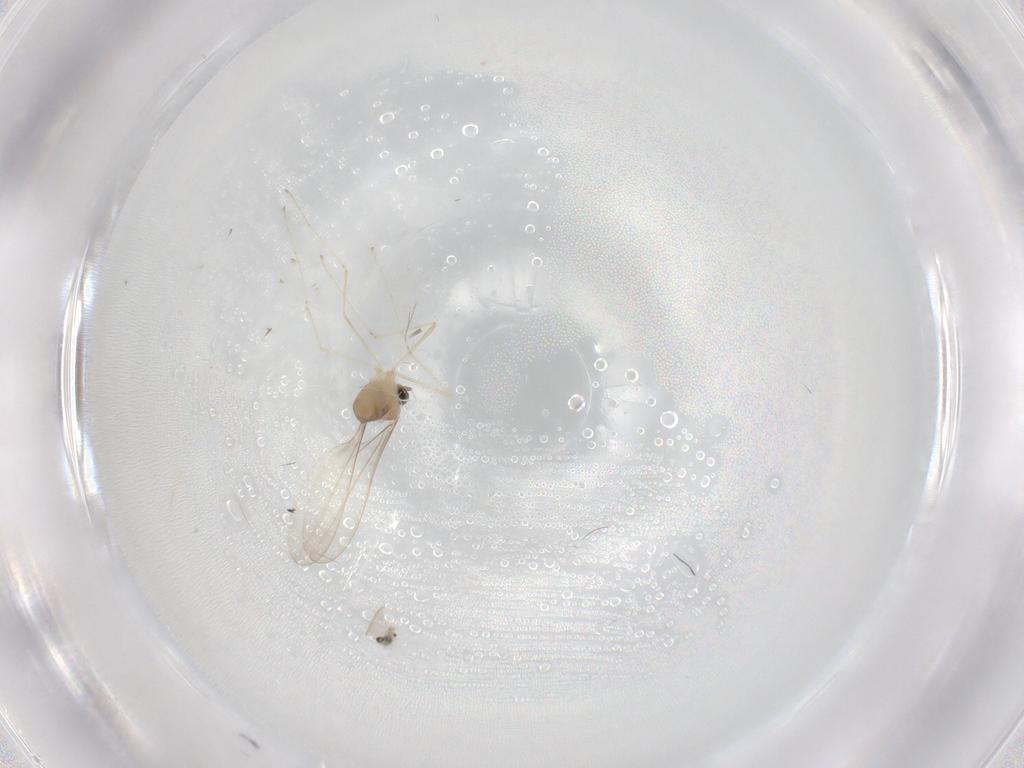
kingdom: Animalia
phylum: Arthropoda
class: Insecta
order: Diptera
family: Cecidomyiidae
